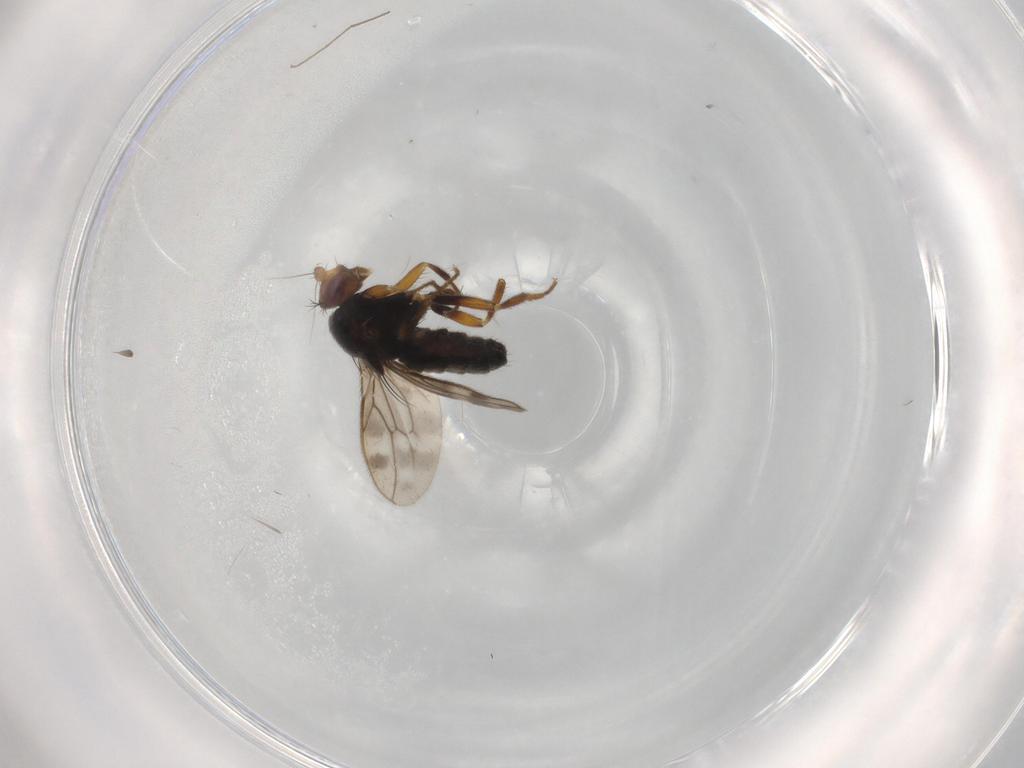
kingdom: Animalia
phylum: Arthropoda
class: Insecta
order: Diptera
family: Sphaeroceridae
